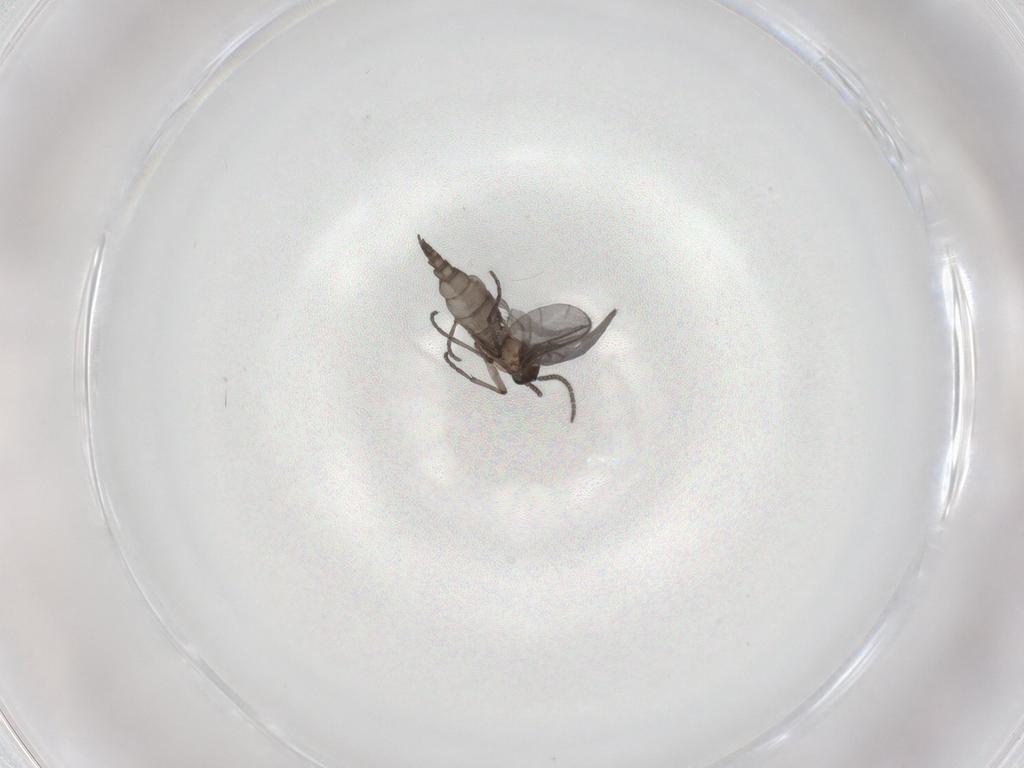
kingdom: Animalia
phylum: Arthropoda
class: Insecta
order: Diptera
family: Sciaridae
